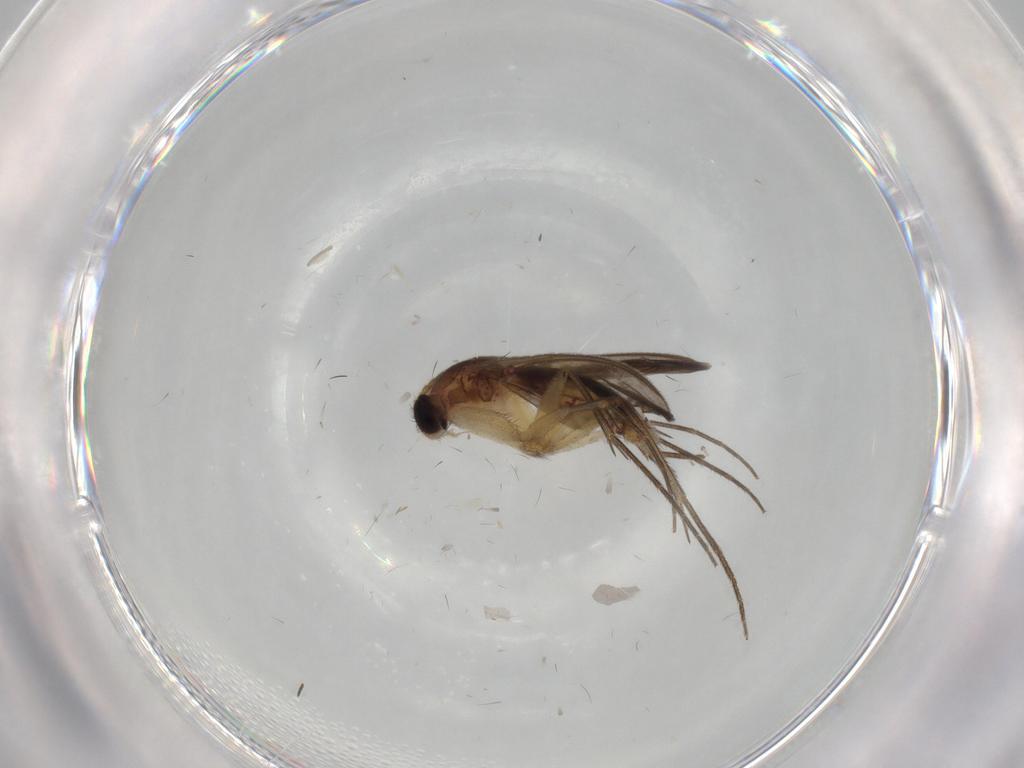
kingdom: Animalia
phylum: Arthropoda
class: Insecta
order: Diptera
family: Mycetophilidae
